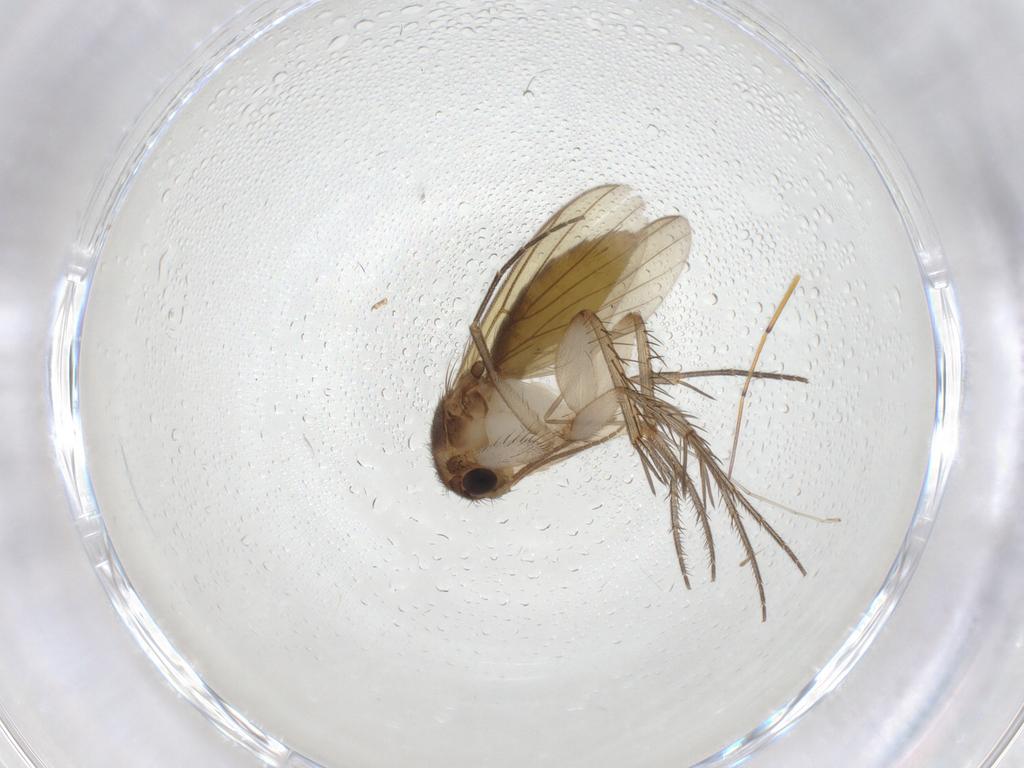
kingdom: Animalia
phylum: Arthropoda
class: Insecta
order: Diptera
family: Mycetophilidae
